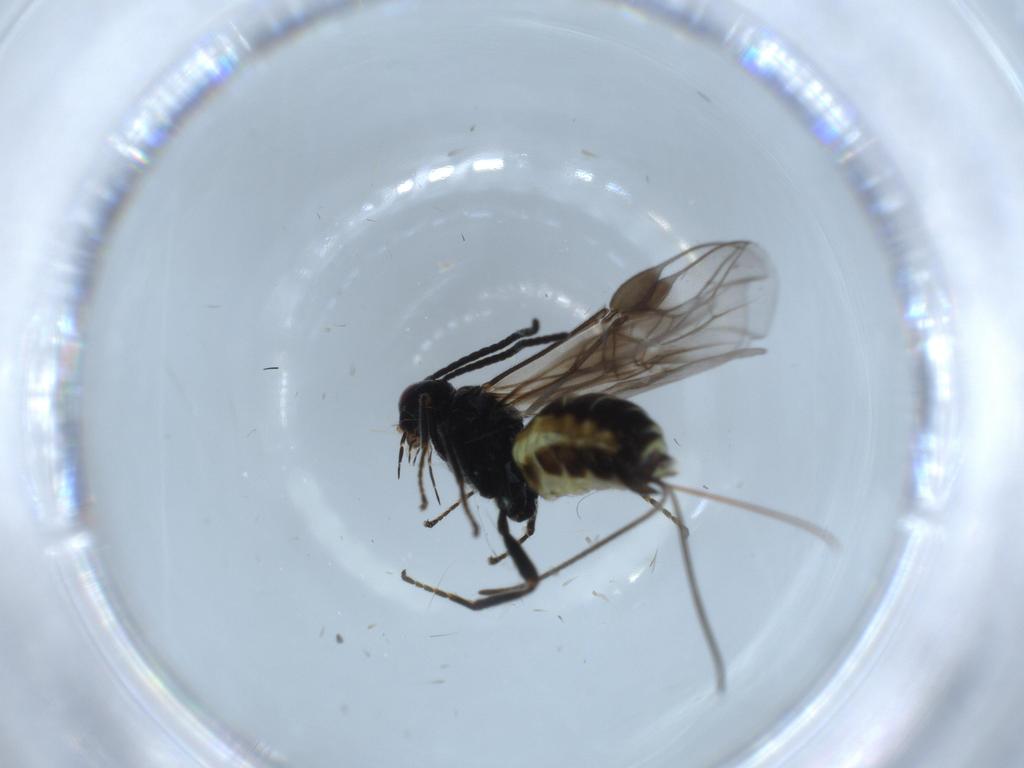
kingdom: Animalia
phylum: Arthropoda
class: Insecta
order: Hymenoptera
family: Braconidae
